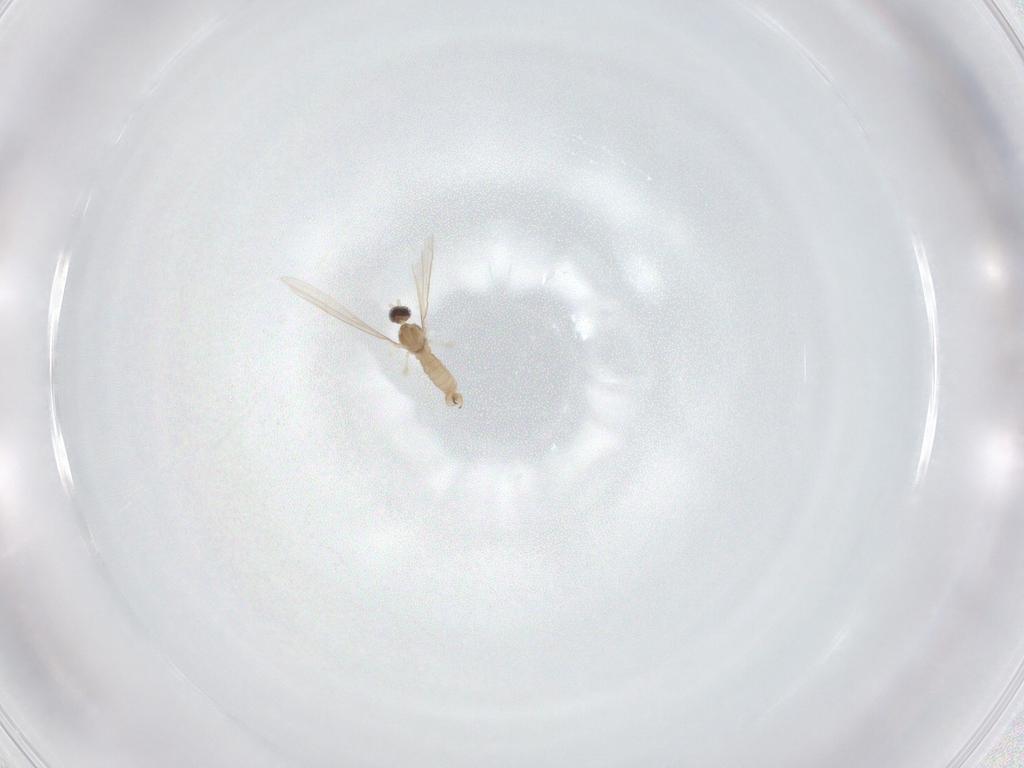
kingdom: Animalia
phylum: Arthropoda
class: Insecta
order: Diptera
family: Cecidomyiidae
